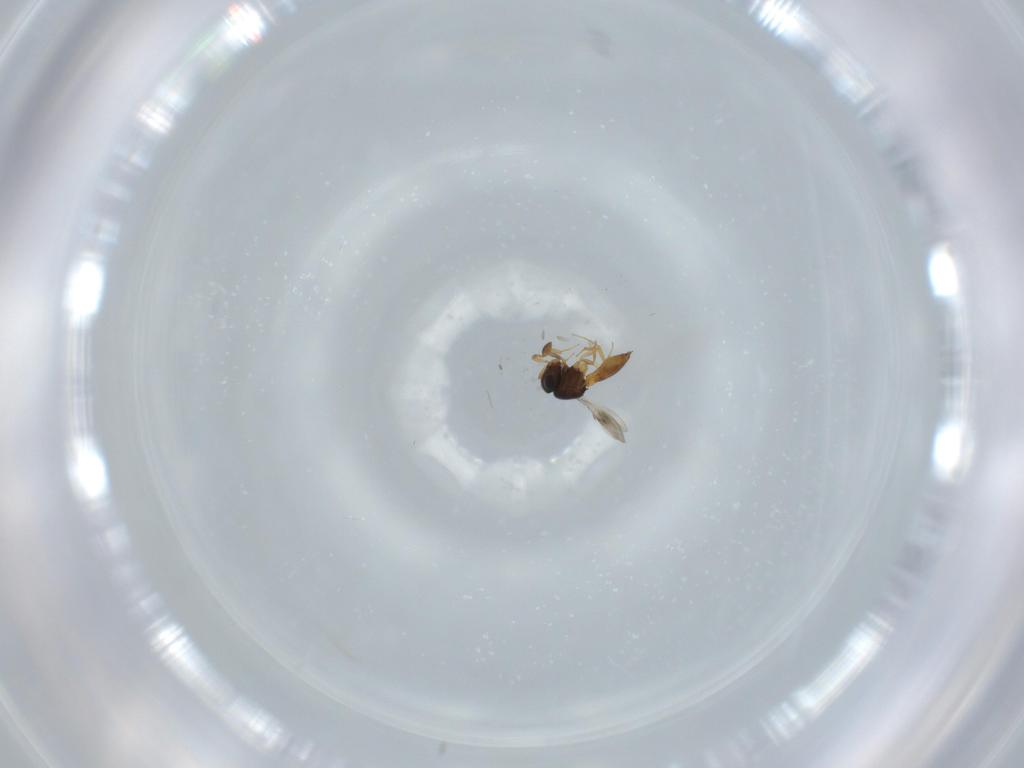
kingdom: Animalia
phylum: Arthropoda
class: Insecta
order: Hymenoptera
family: Scelionidae
